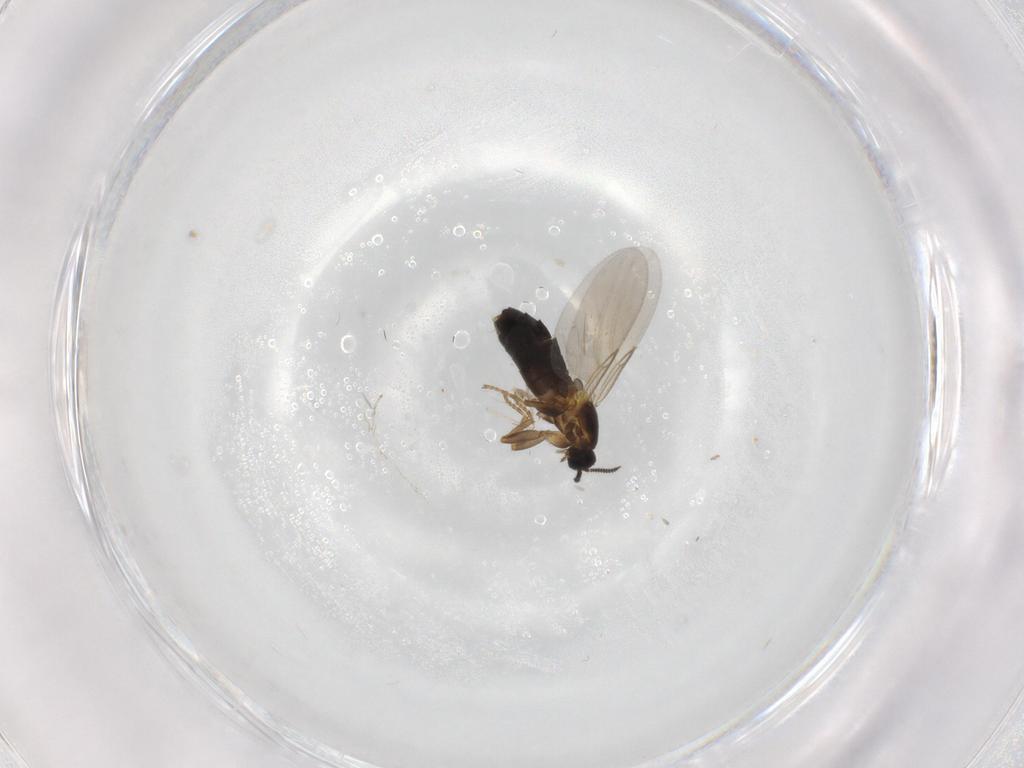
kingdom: Animalia
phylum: Arthropoda
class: Insecta
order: Diptera
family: Scatopsidae
